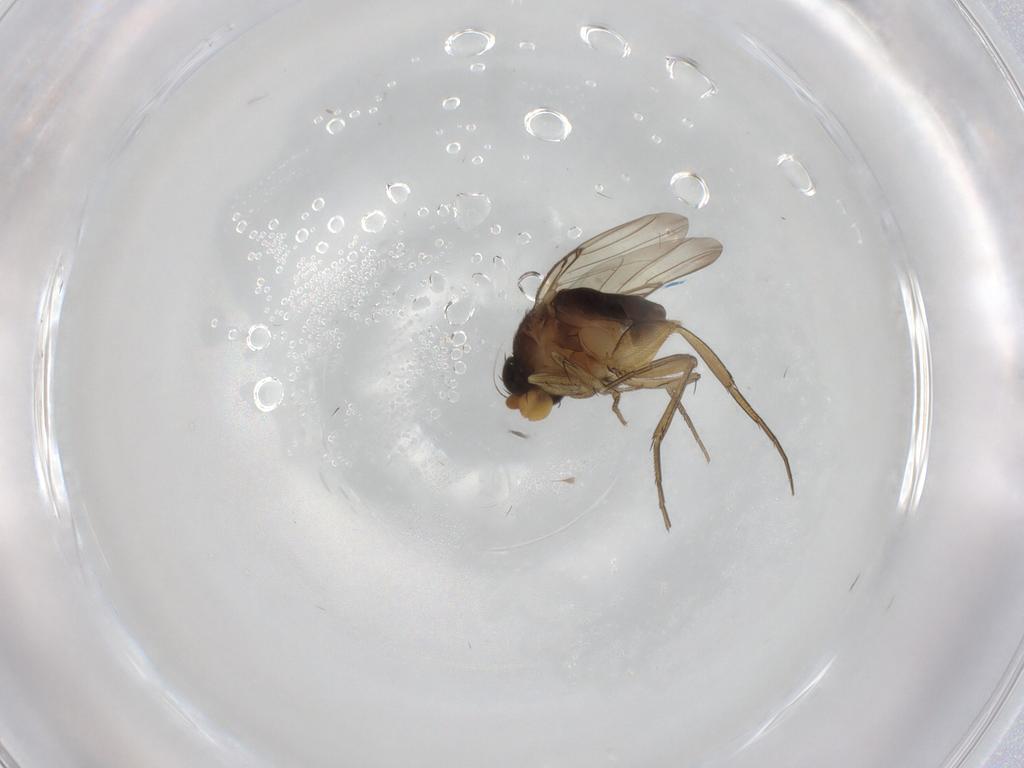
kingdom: Animalia
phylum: Arthropoda
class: Insecta
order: Diptera
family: Phoridae
